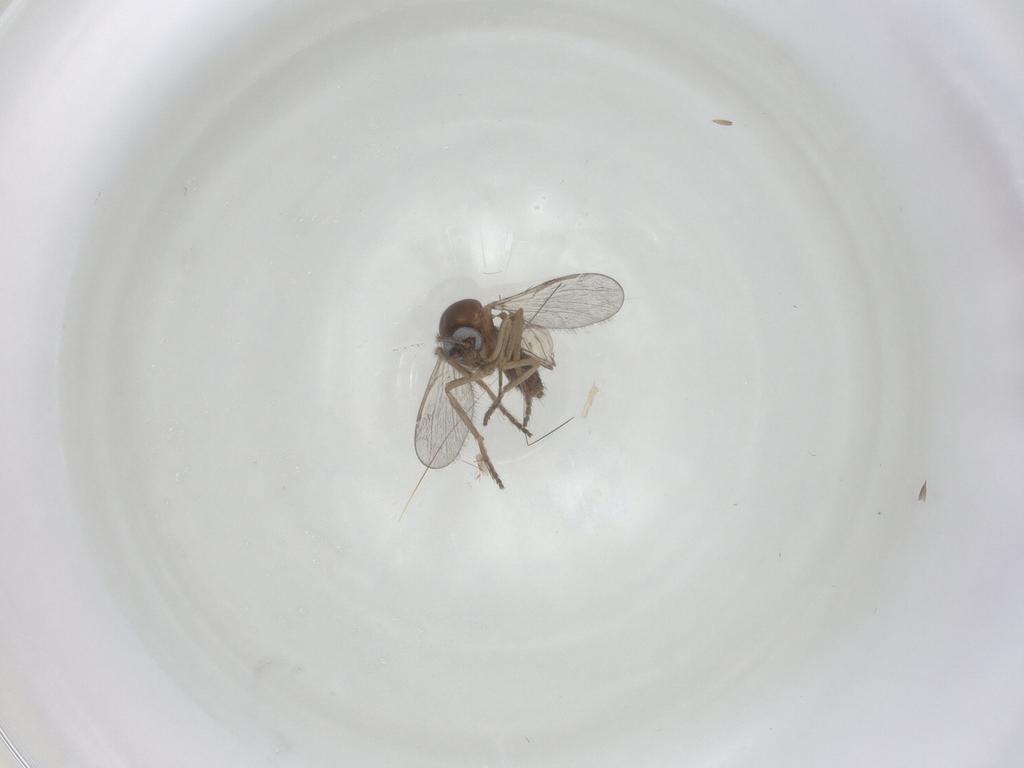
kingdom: Animalia
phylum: Arthropoda
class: Insecta
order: Diptera
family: Ceratopogonidae
